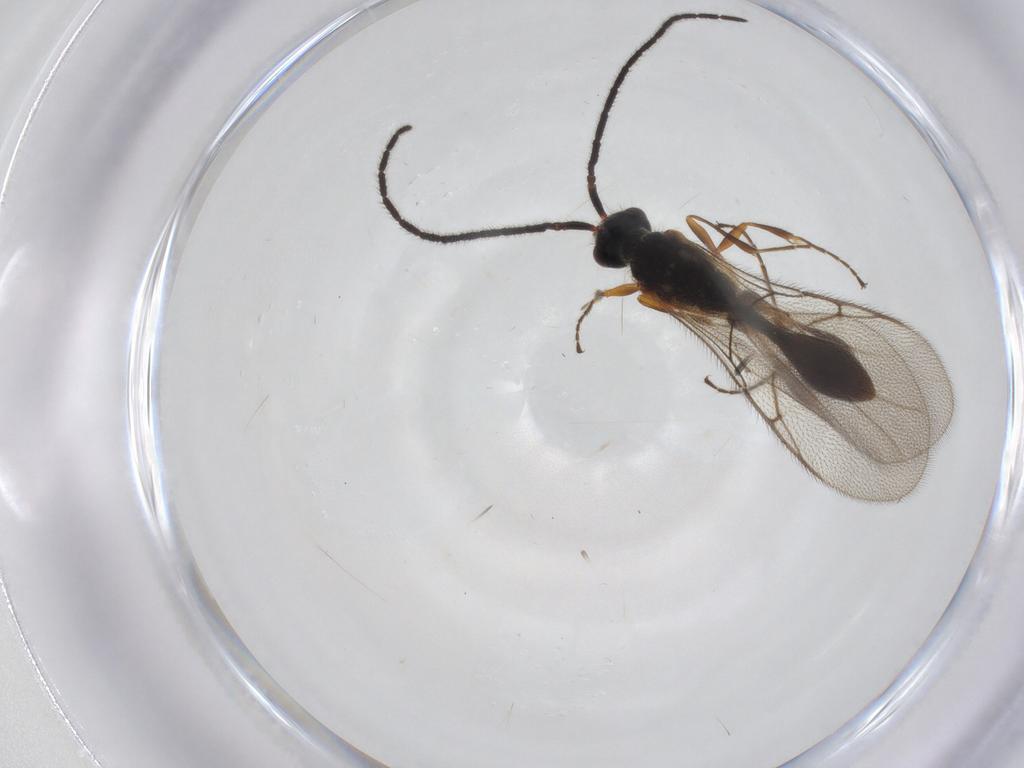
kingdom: Animalia
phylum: Arthropoda
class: Insecta
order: Hymenoptera
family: Diapriidae
